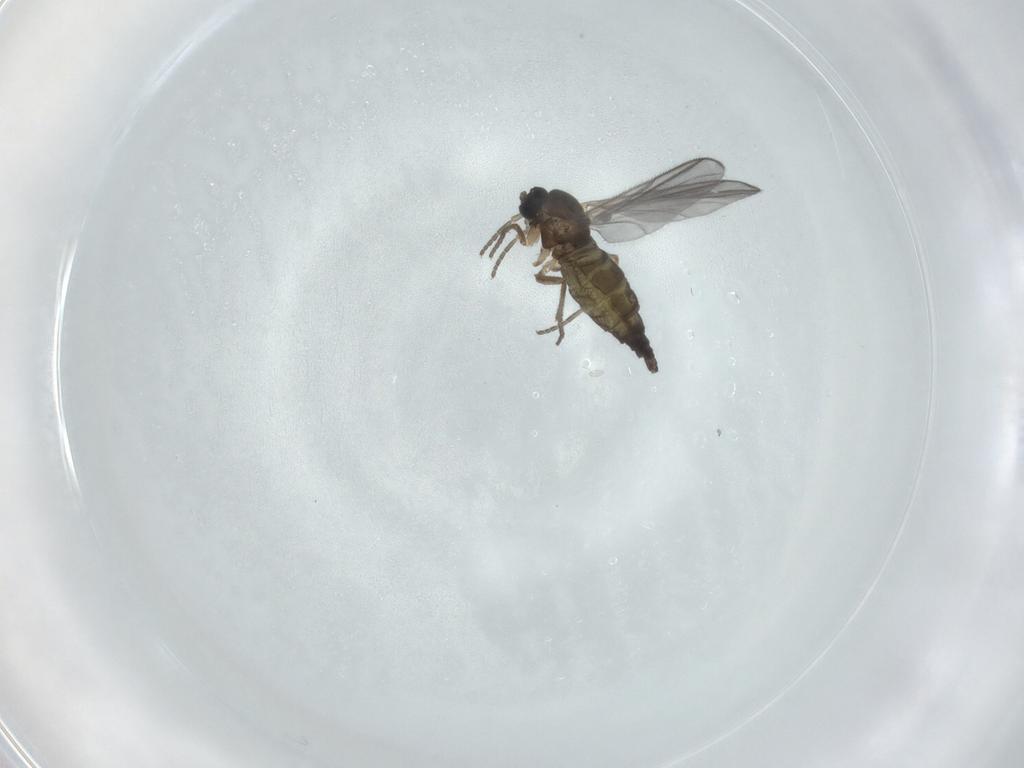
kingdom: Animalia
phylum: Arthropoda
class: Insecta
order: Diptera
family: Sciaridae
